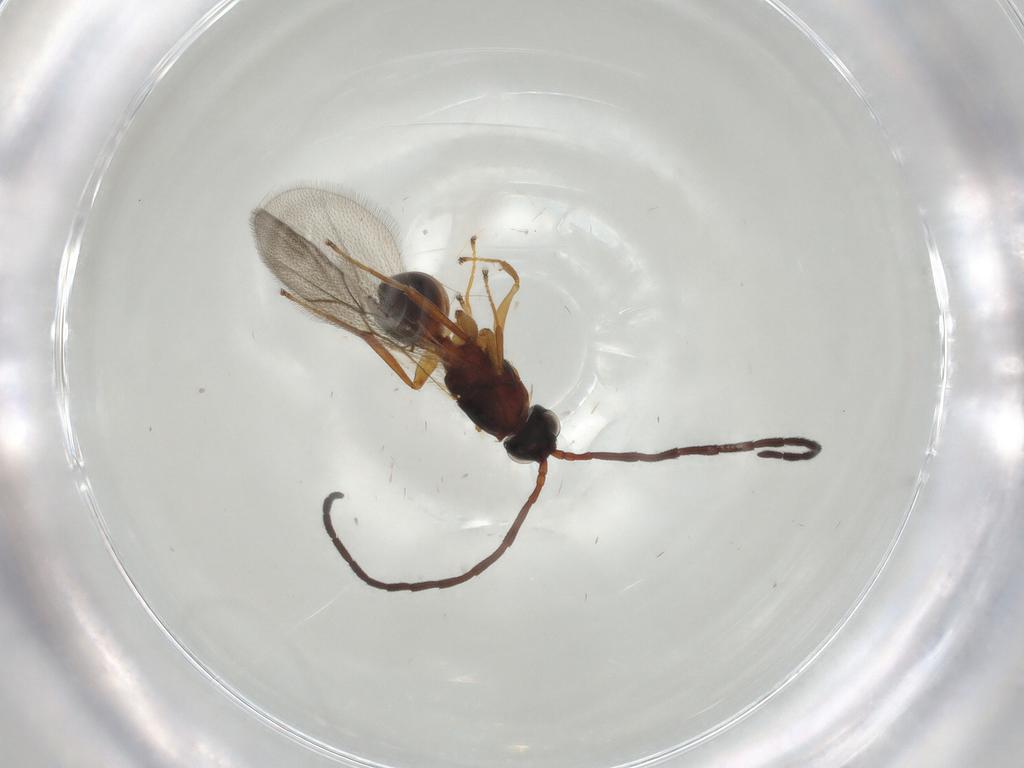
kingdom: Animalia
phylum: Arthropoda
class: Insecta
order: Hymenoptera
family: Figitidae
